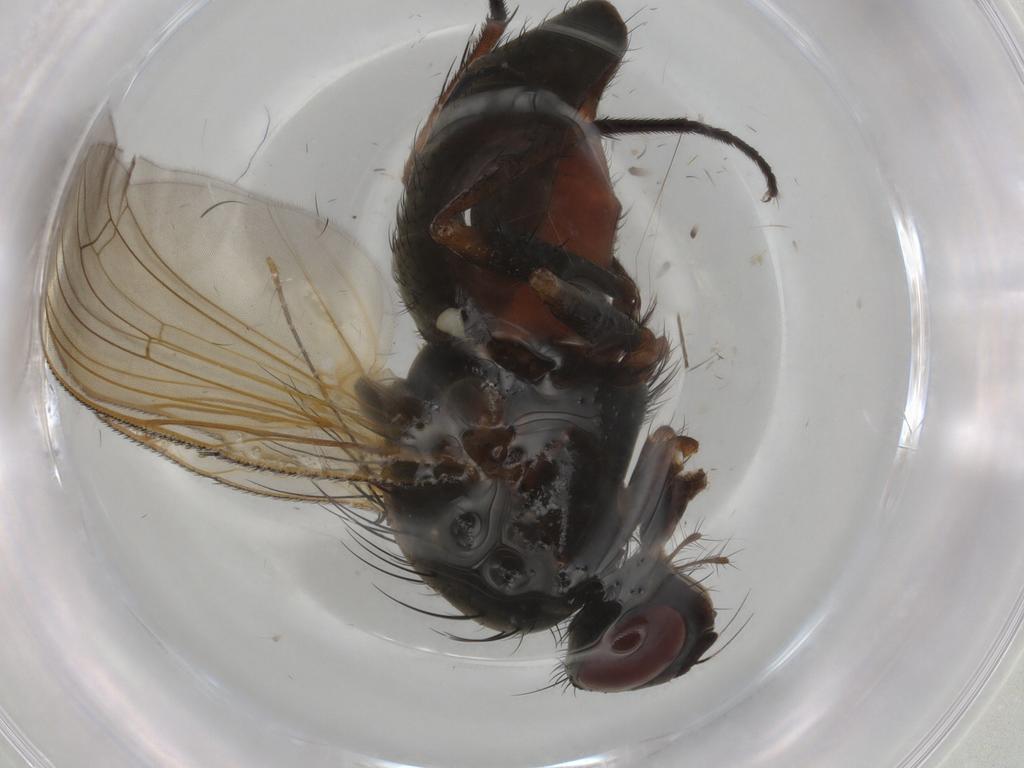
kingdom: Animalia
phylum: Arthropoda
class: Insecta
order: Diptera
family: Anthomyiidae
